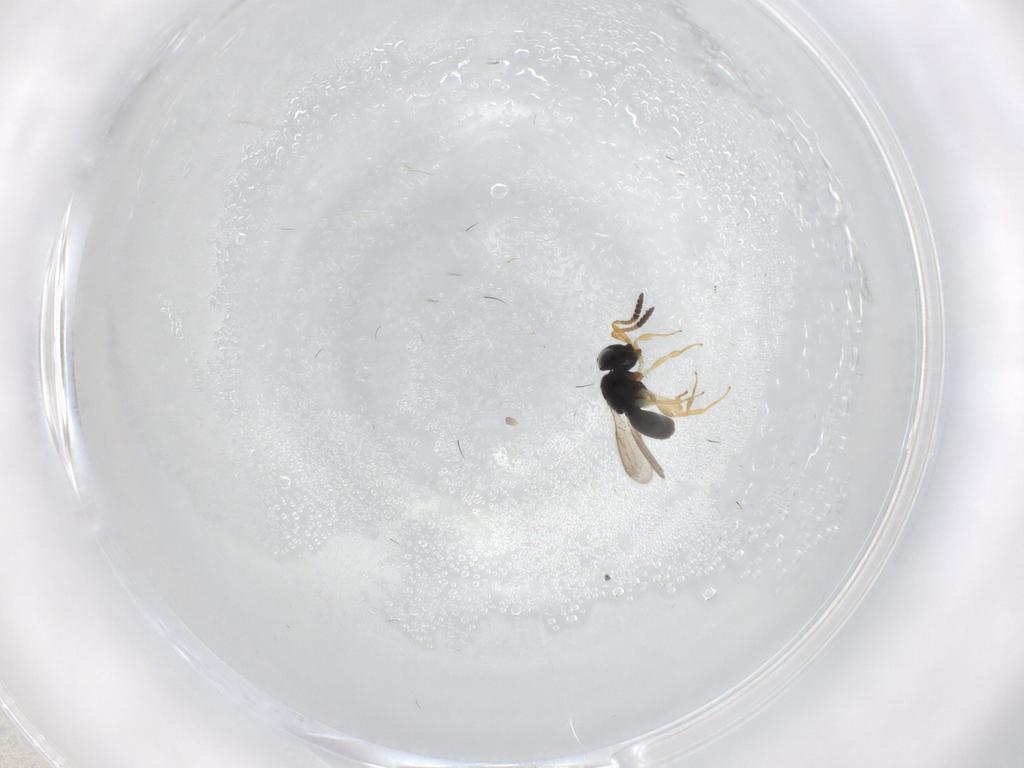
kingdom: Animalia
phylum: Arthropoda
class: Insecta
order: Hymenoptera
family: Scelionidae
